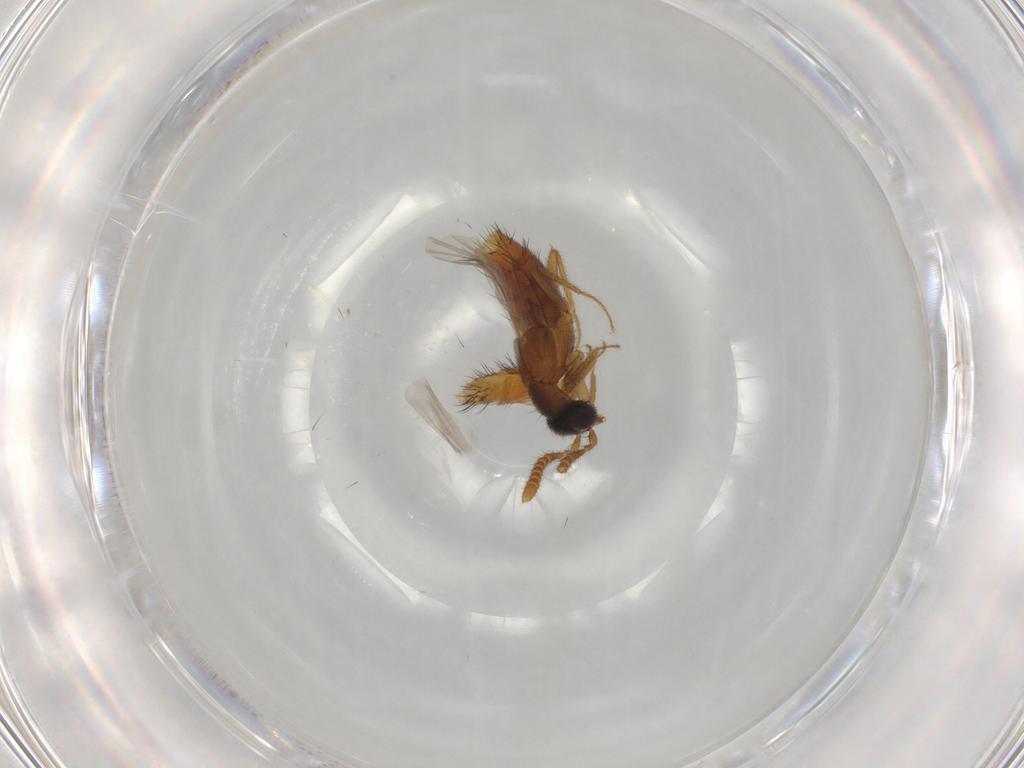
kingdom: Animalia
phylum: Arthropoda
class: Insecta
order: Coleoptera
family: Staphylinidae
